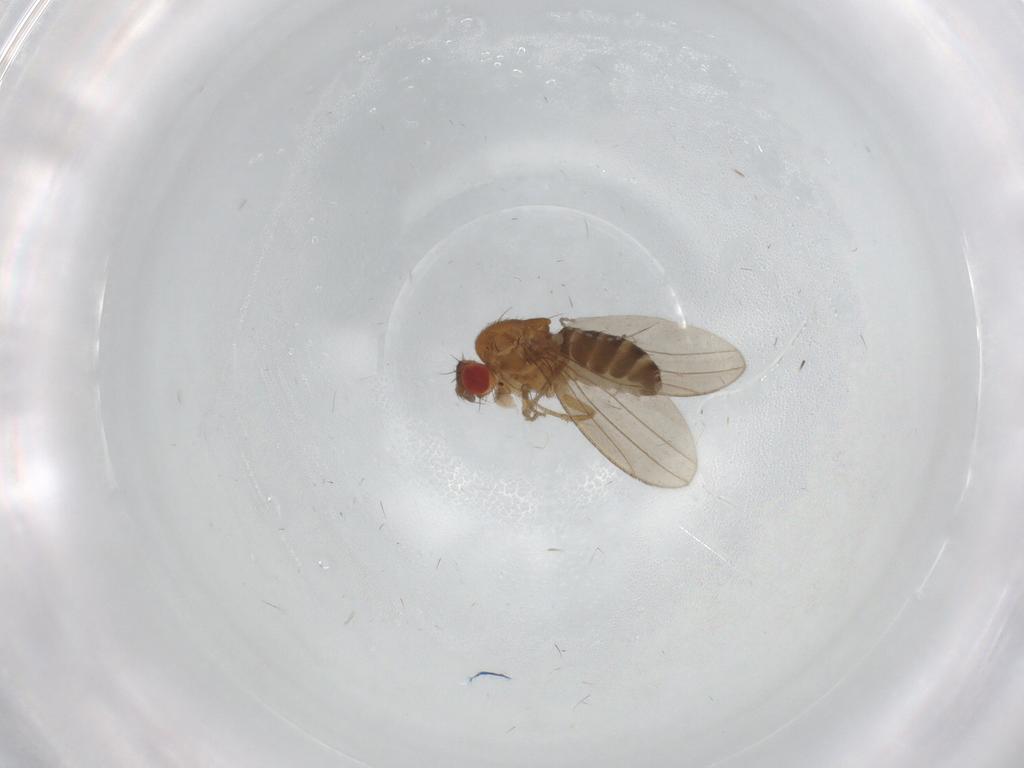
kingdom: Animalia
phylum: Arthropoda
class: Insecta
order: Diptera
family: Drosophilidae
